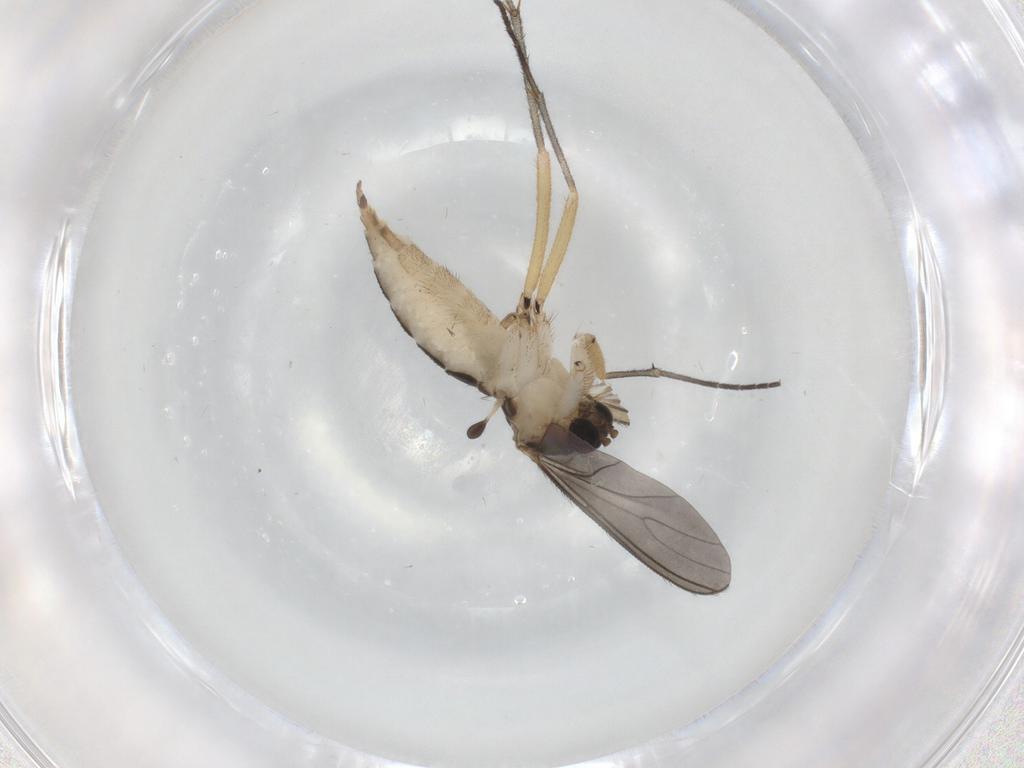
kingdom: Animalia
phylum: Arthropoda
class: Insecta
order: Diptera
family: Sciaridae
